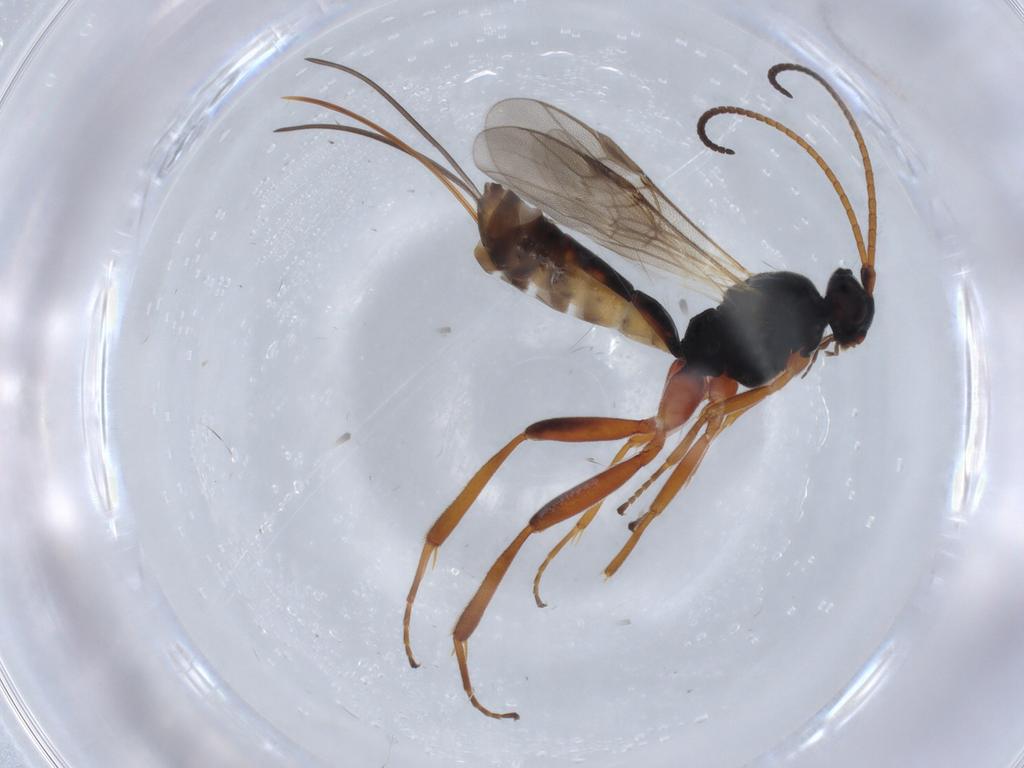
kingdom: Animalia
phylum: Arthropoda
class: Insecta
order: Hymenoptera
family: Braconidae
